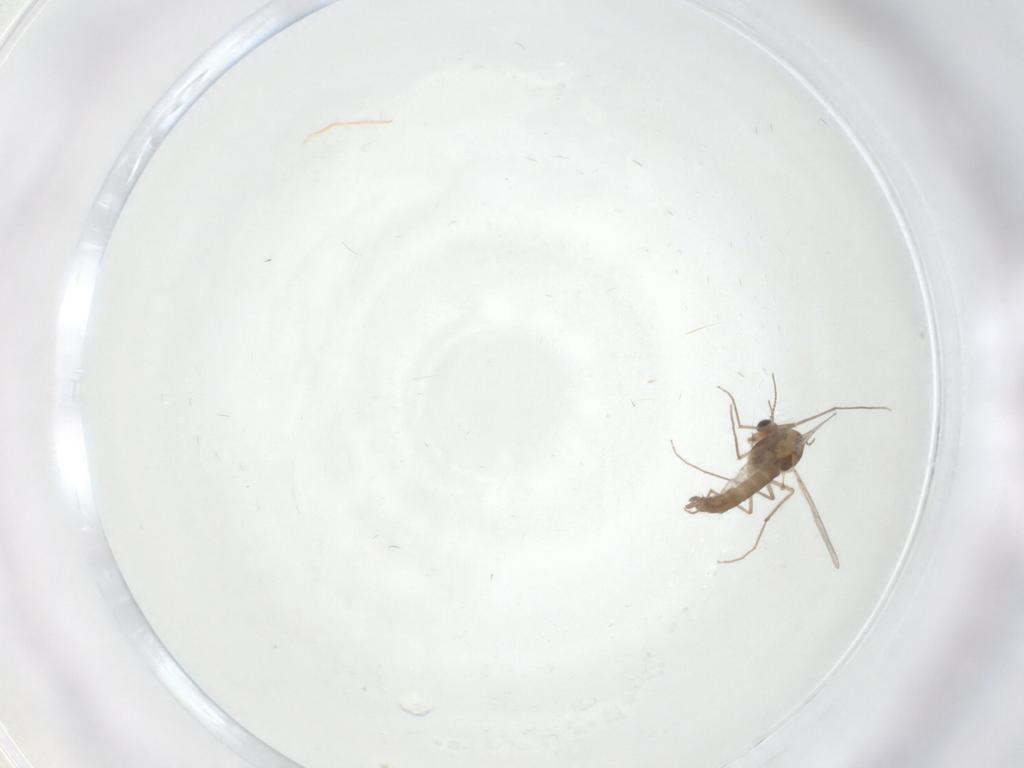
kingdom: Animalia
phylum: Arthropoda
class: Insecta
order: Diptera
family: Chironomidae
